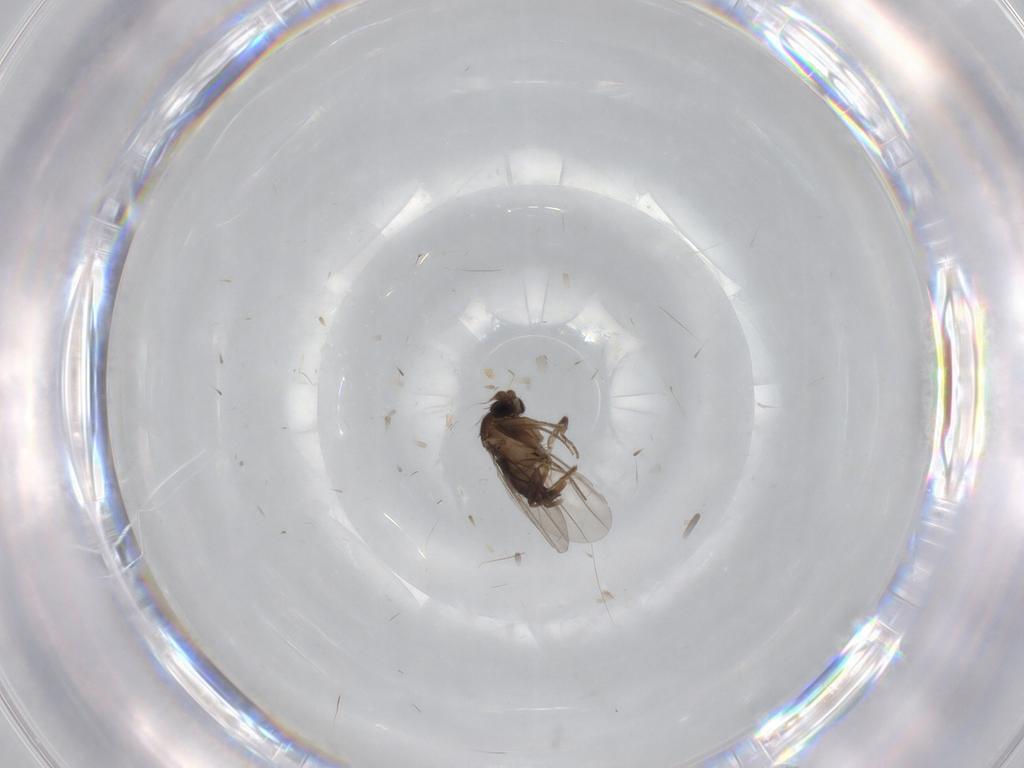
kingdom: Animalia
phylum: Arthropoda
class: Insecta
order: Diptera
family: Phoridae
